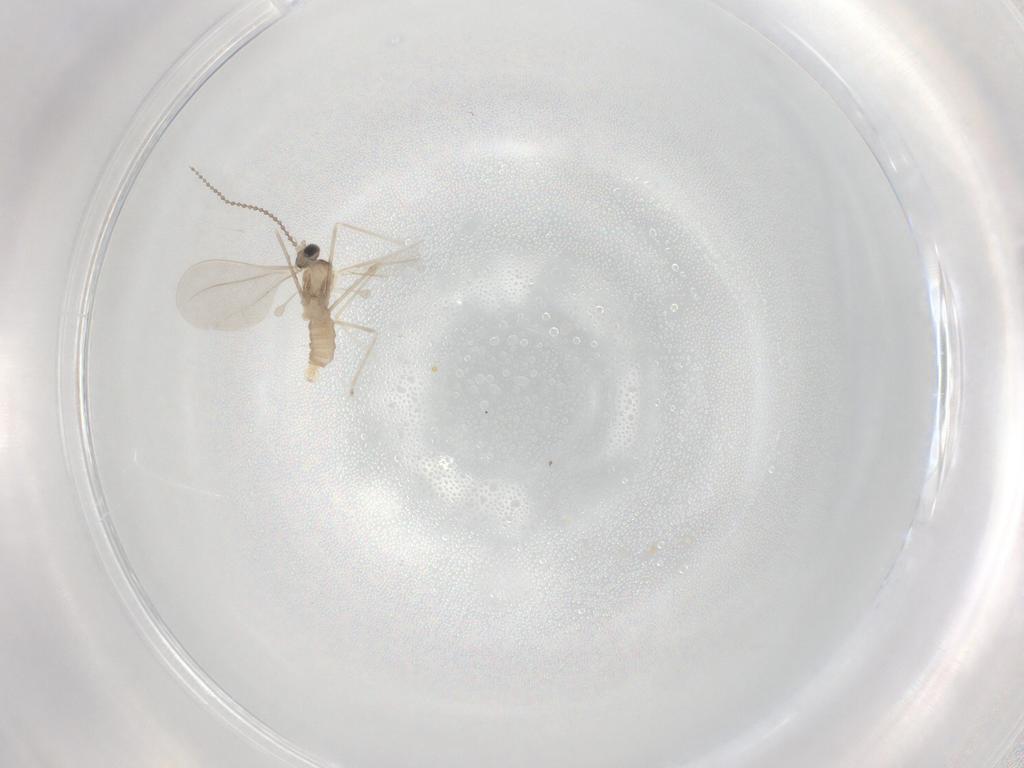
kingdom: Animalia
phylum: Arthropoda
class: Insecta
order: Diptera
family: Cecidomyiidae
